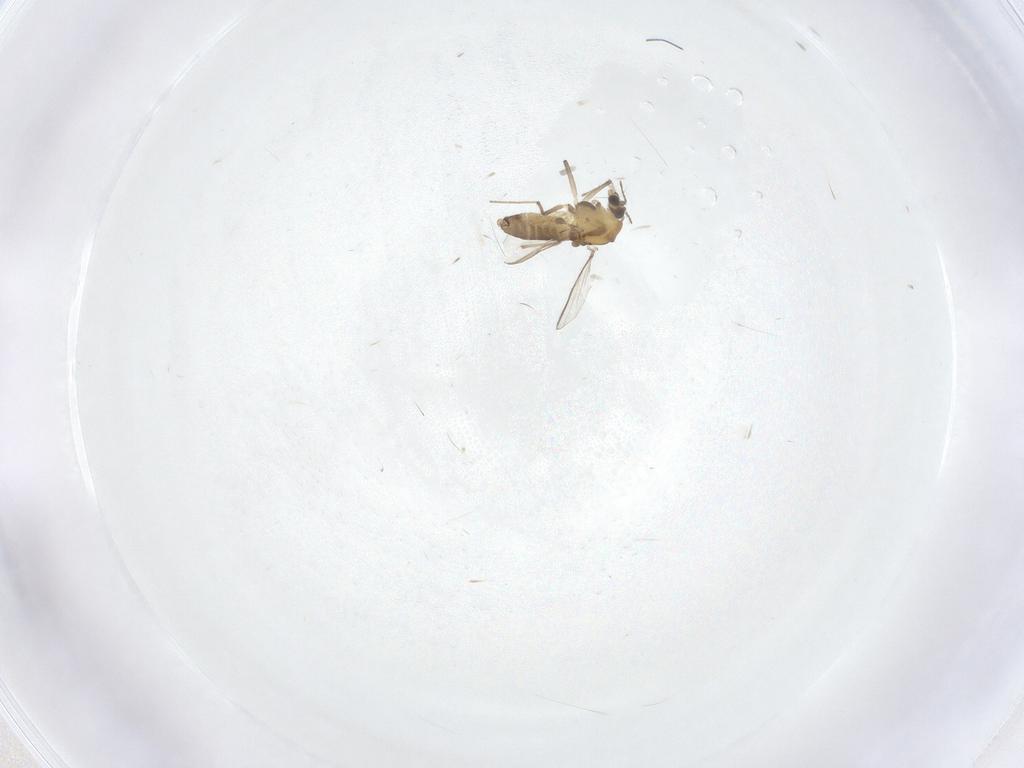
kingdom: Animalia
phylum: Arthropoda
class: Insecta
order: Diptera
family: Chironomidae
